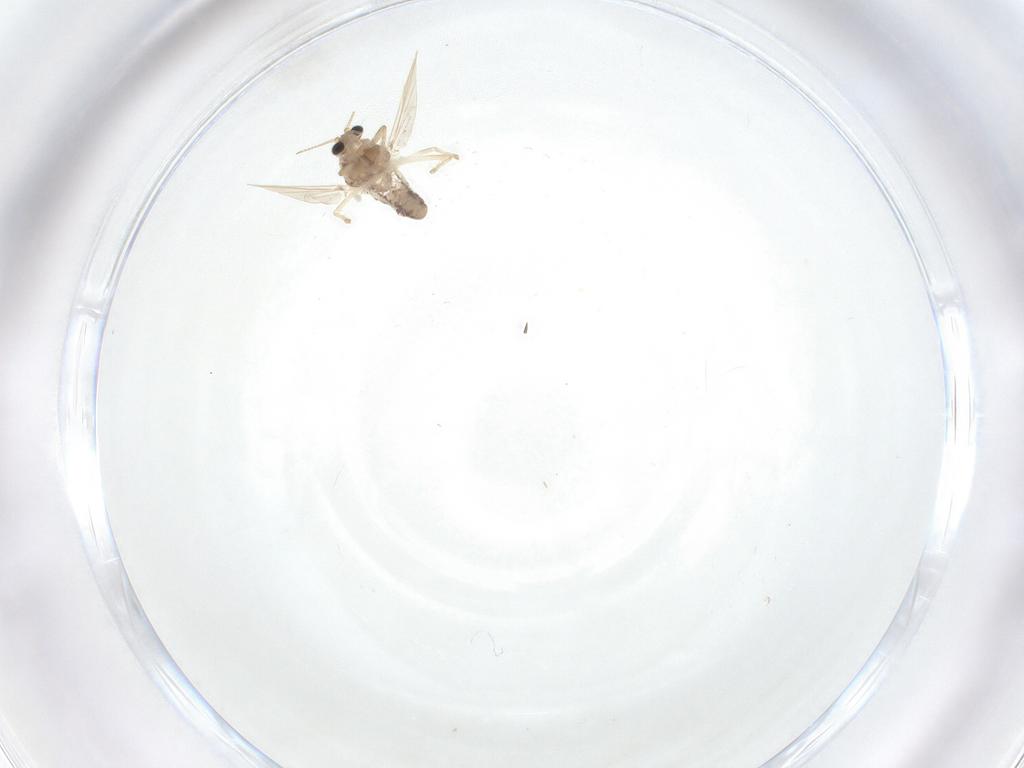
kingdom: Animalia
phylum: Arthropoda
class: Insecta
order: Diptera
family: Chironomidae
